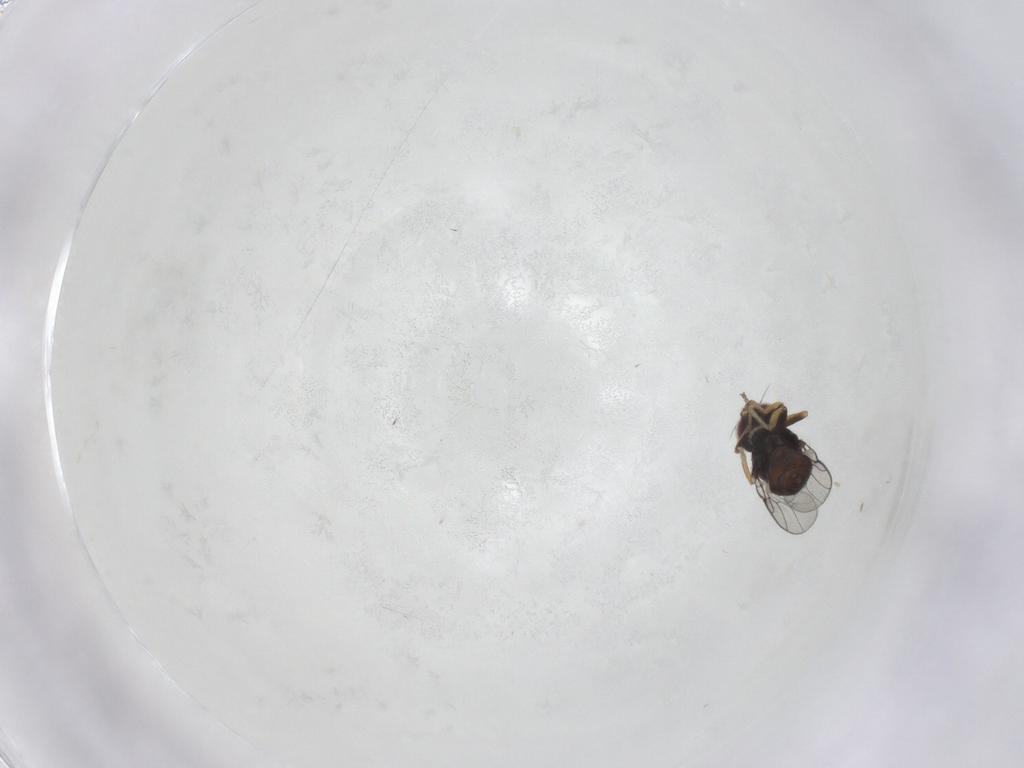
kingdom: Animalia
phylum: Arthropoda
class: Insecta
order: Diptera
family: Chloropidae
